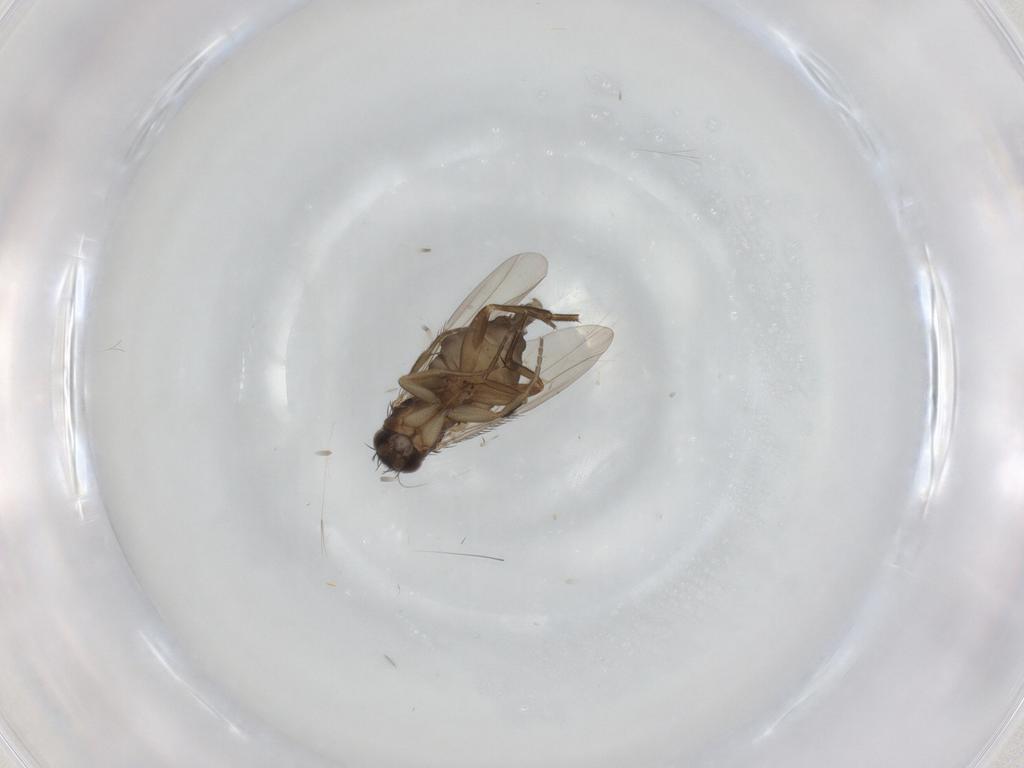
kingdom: Animalia
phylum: Arthropoda
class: Insecta
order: Diptera
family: Phoridae
